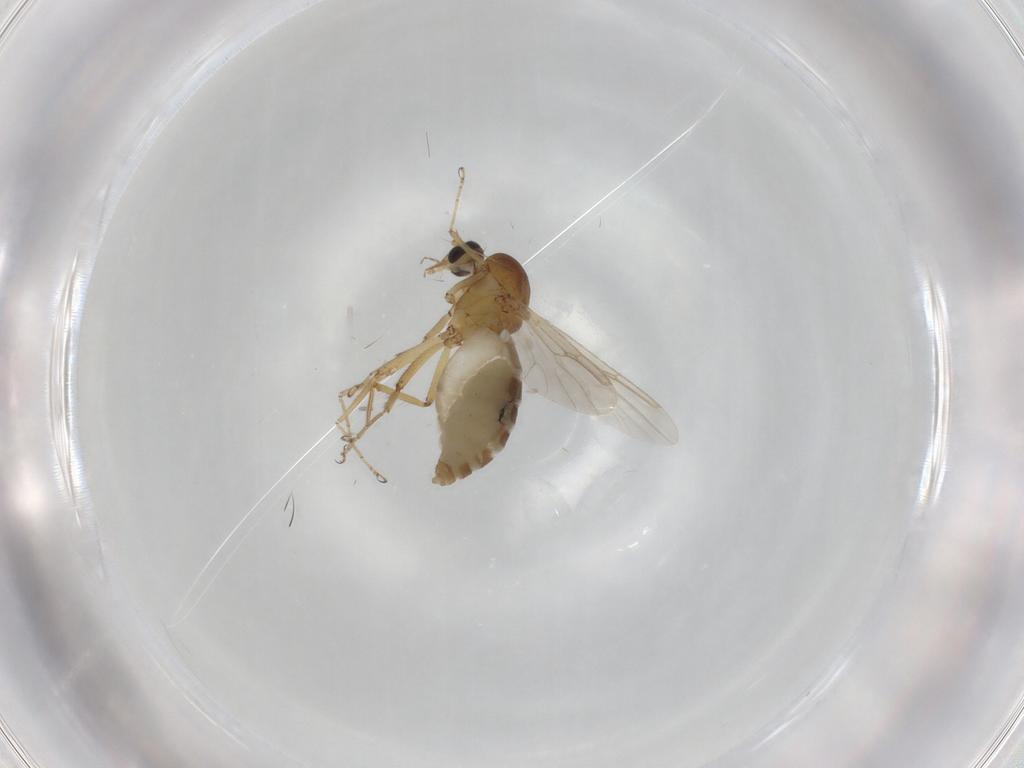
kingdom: Animalia
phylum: Arthropoda
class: Insecta
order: Diptera
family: Ceratopogonidae
